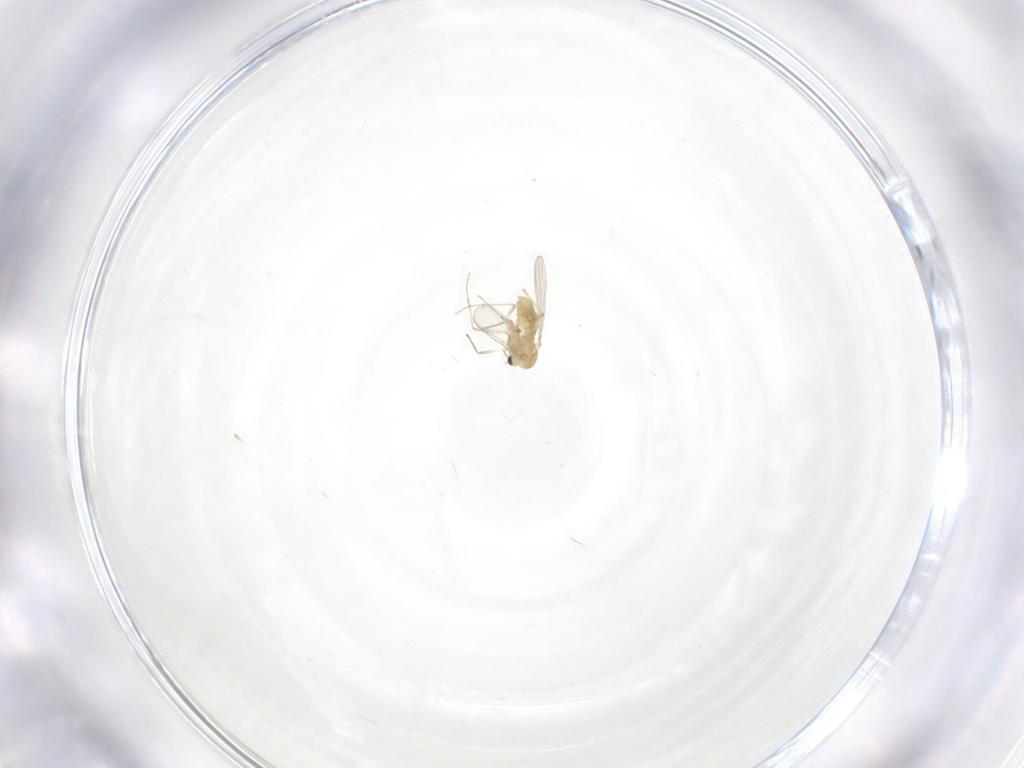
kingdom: Animalia
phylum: Arthropoda
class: Insecta
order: Diptera
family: Chironomidae
